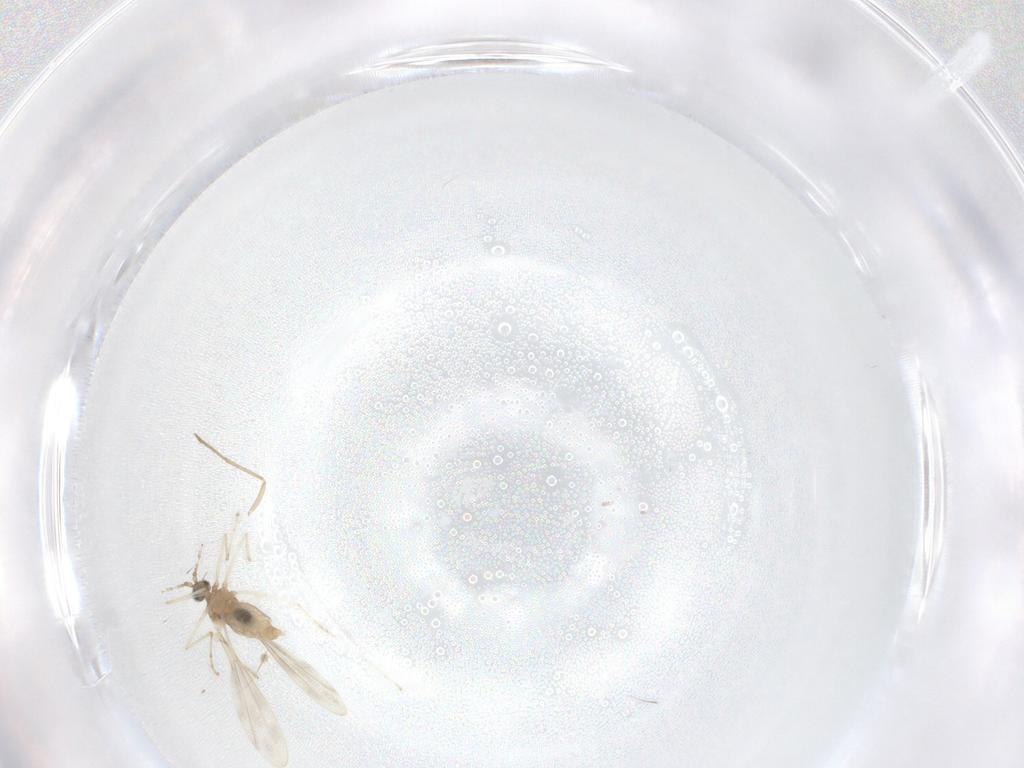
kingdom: Animalia
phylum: Arthropoda
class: Insecta
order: Diptera
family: Cecidomyiidae
